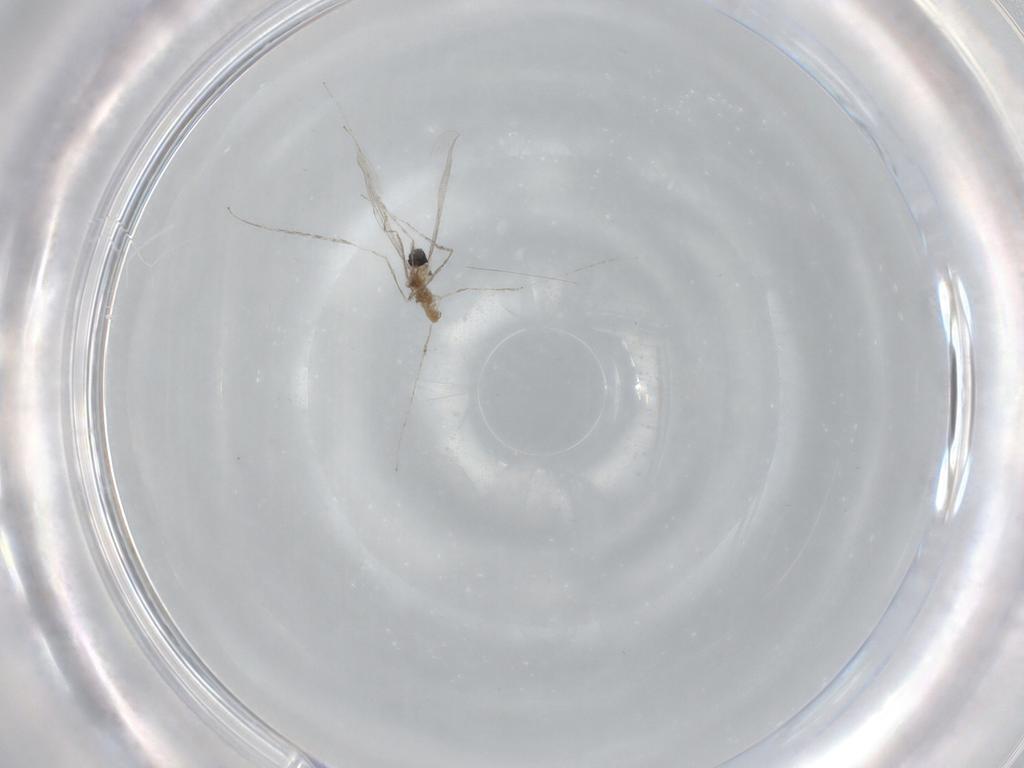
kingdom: Animalia
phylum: Arthropoda
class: Insecta
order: Diptera
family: Cecidomyiidae
